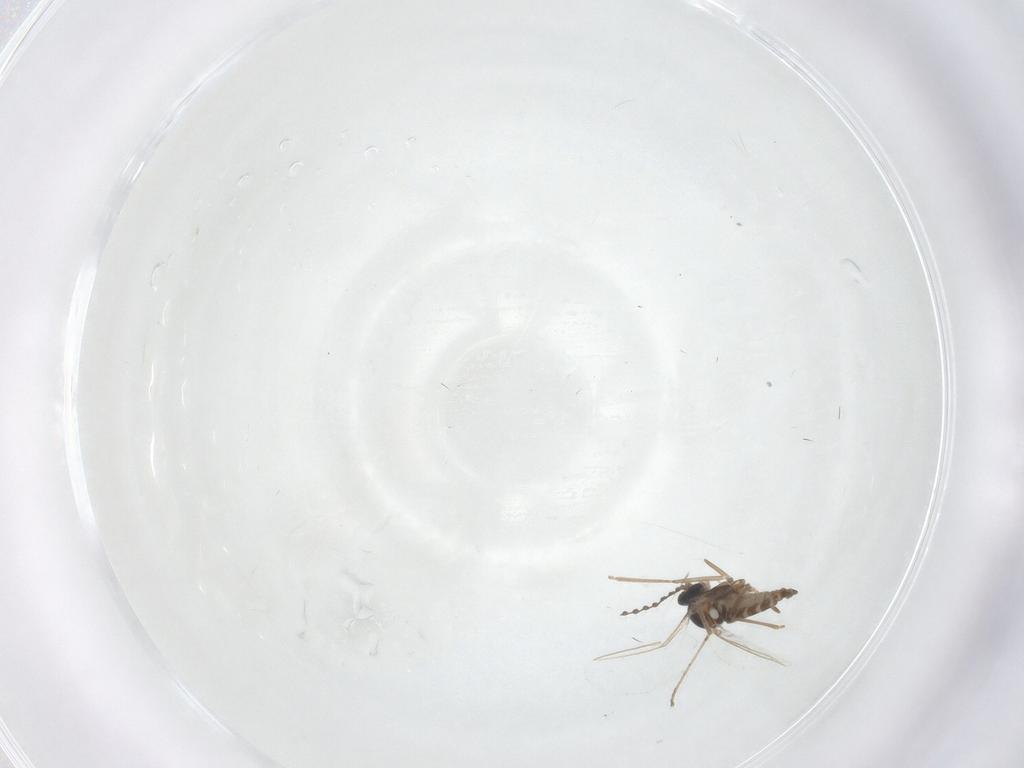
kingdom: Animalia
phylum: Arthropoda
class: Insecta
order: Diptera
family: Cecidomyiidae
